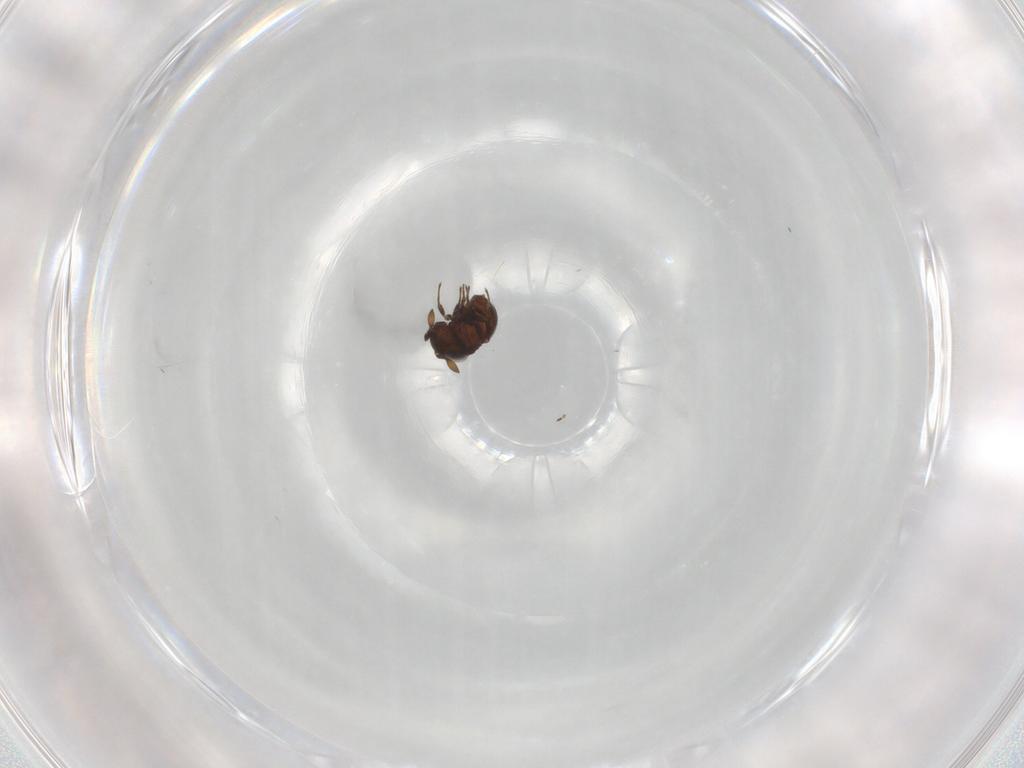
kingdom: Animalia
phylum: Arthropoda
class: Insecta
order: Hymenoptera
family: Scelionidae
